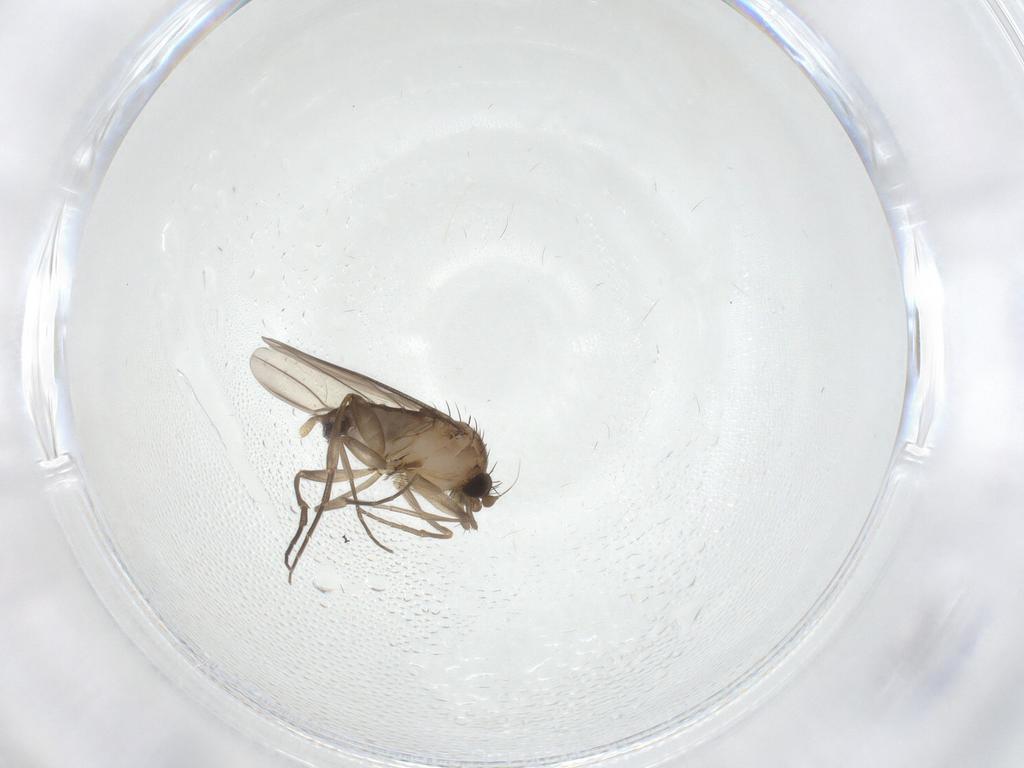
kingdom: Animalia
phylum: Arthropoda
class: Insecta
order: Diptera
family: Phoridae
